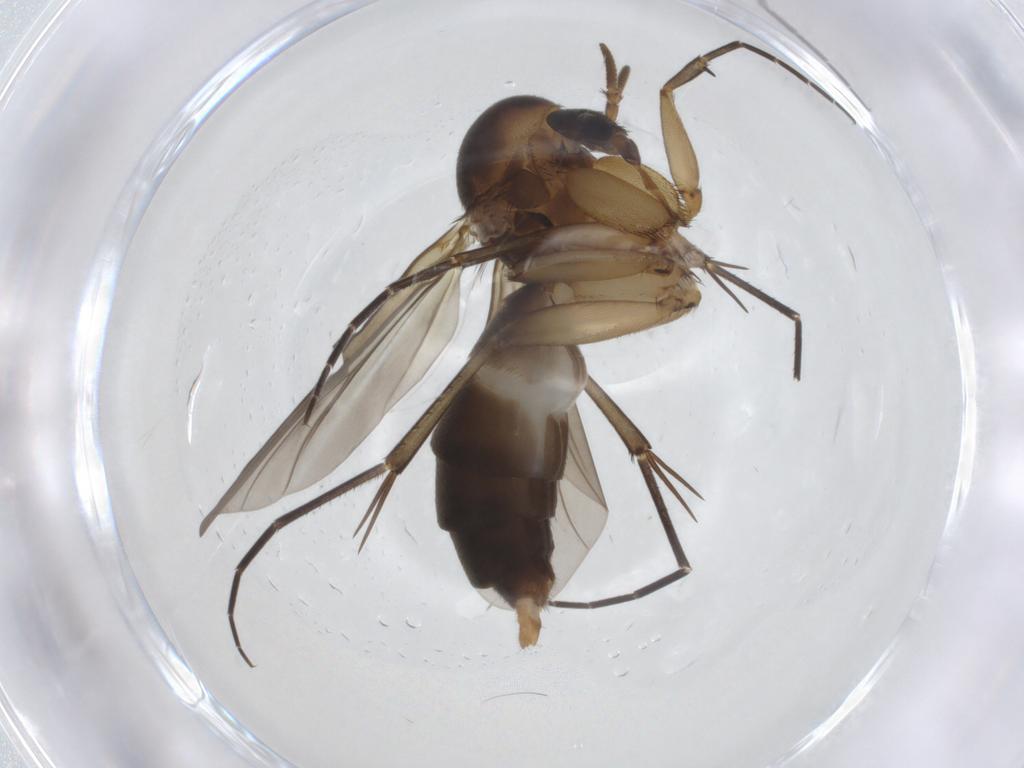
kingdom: Animalia
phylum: Arthropoda
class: Insecta
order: Diptera
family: Mycetophilidae
